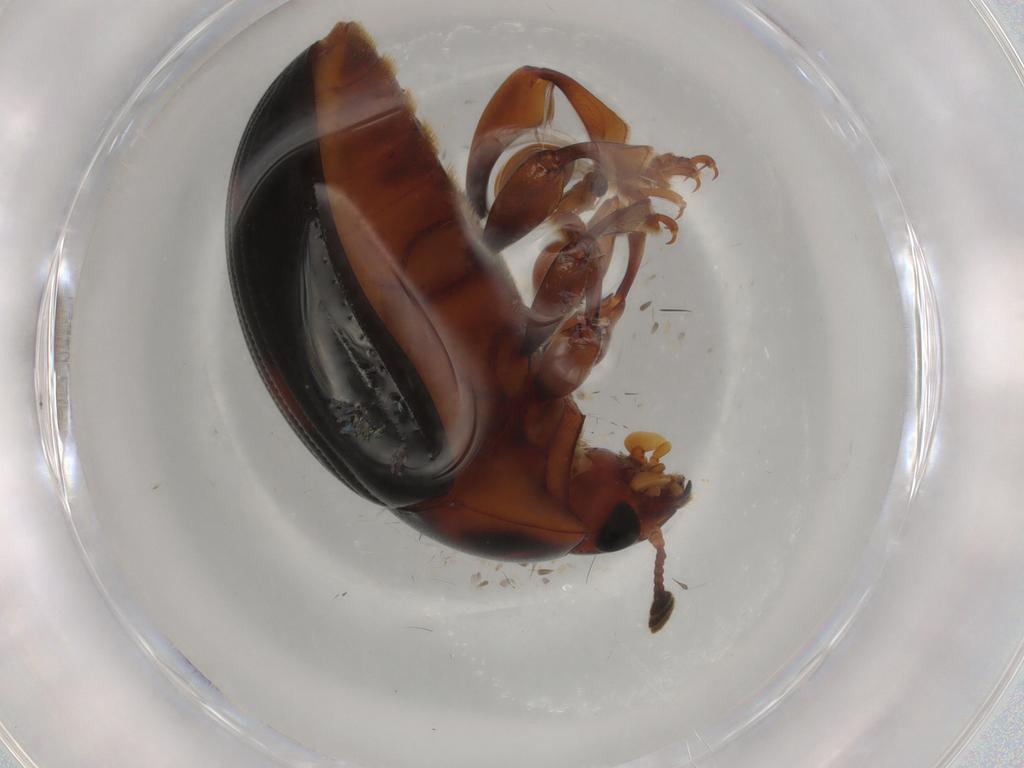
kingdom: Animalia
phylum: Arthropoda
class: Insecta
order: Coleoptera
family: Erotylidae
